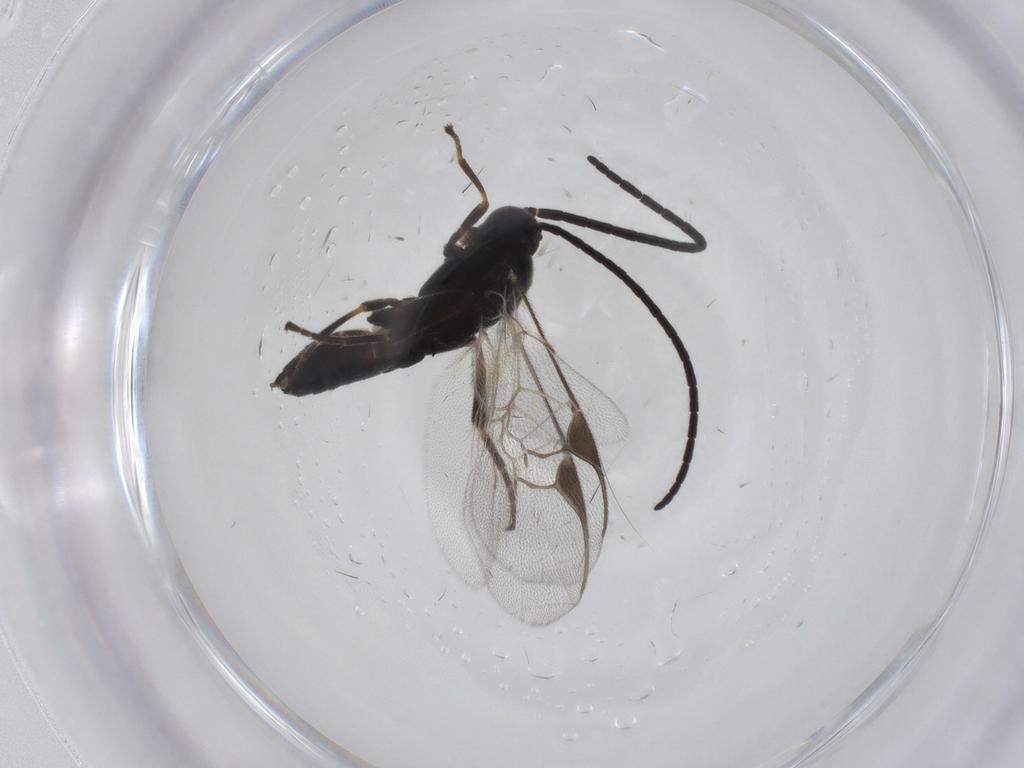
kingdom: Animalia
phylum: Arthropoda
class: Insecta
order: Hymenoptera
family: Braconidae
